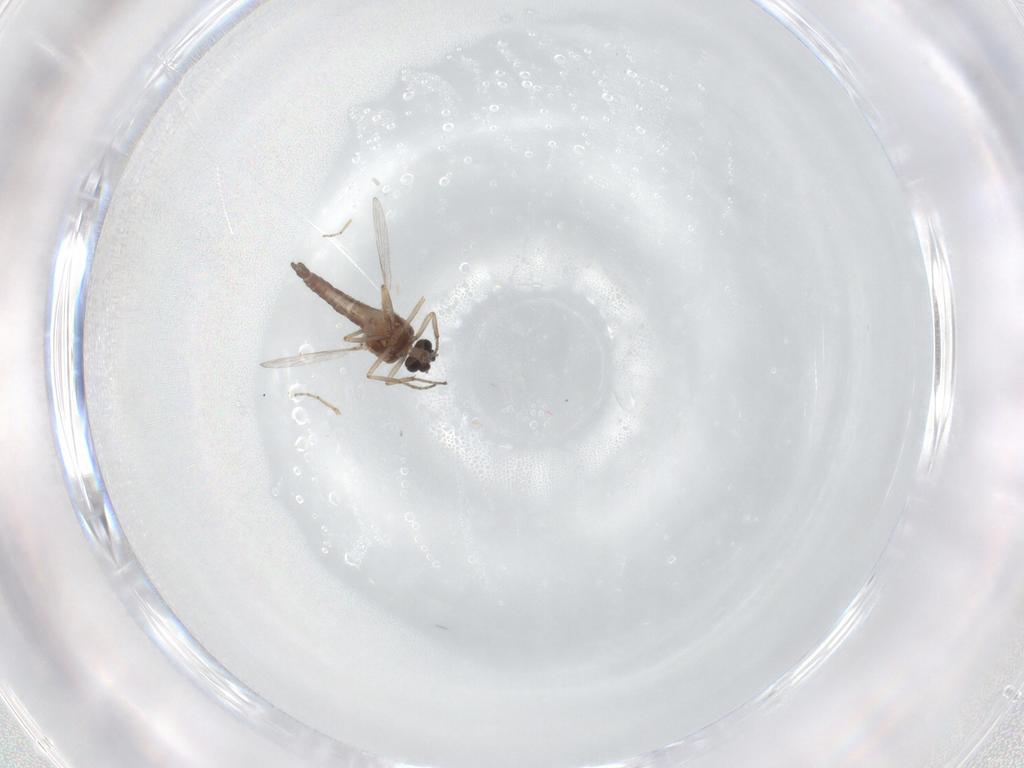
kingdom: Animalia
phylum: Arthropoda
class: Insecta
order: Diptera
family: Ceratopogonidae
